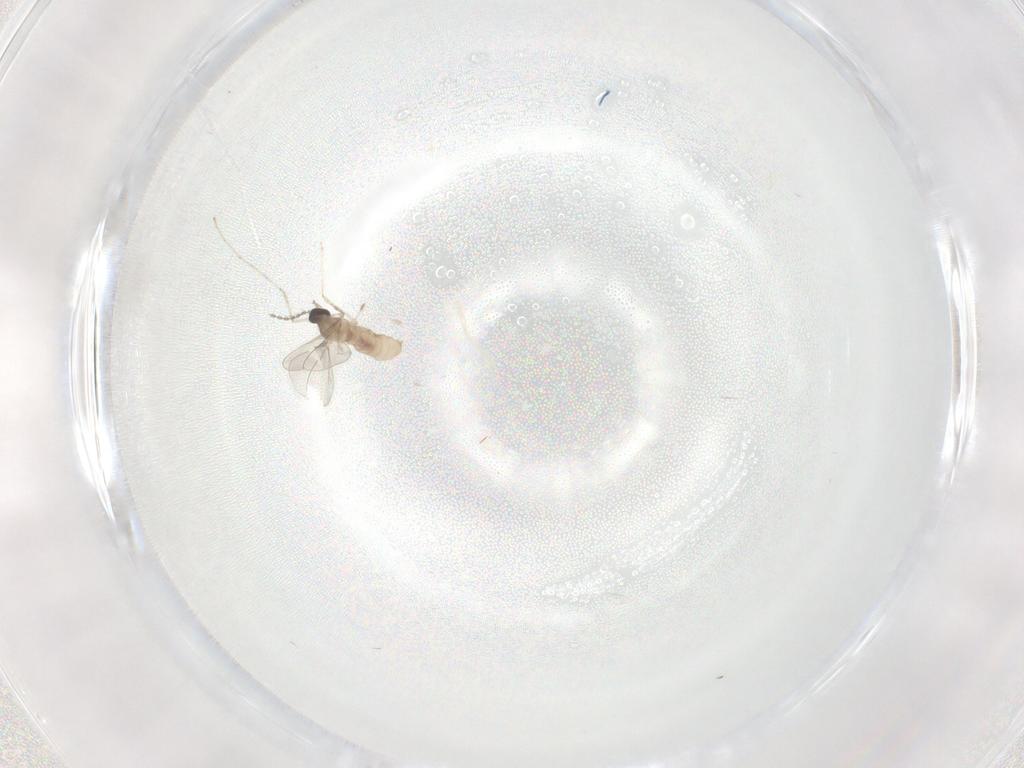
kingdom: Animalia
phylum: Arthropoda
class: Insecta
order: Diptera
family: Cecidomyiidae
